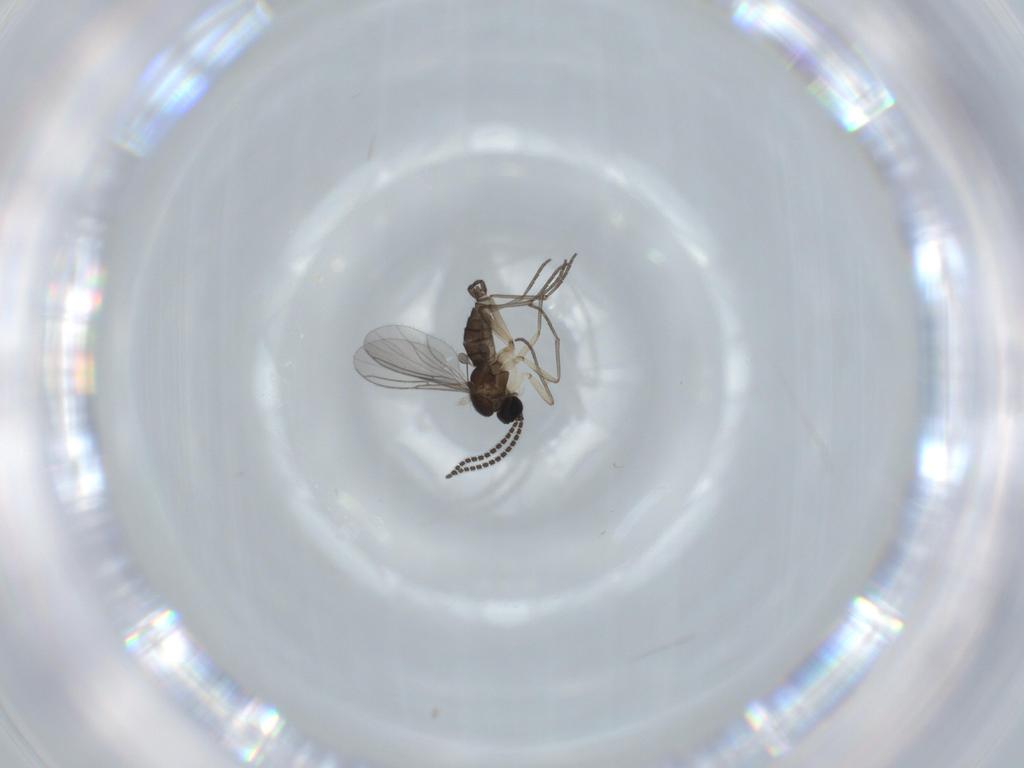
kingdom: Animalia
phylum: Arthropoda
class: Insecta
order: Diptera
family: Sciaridae
